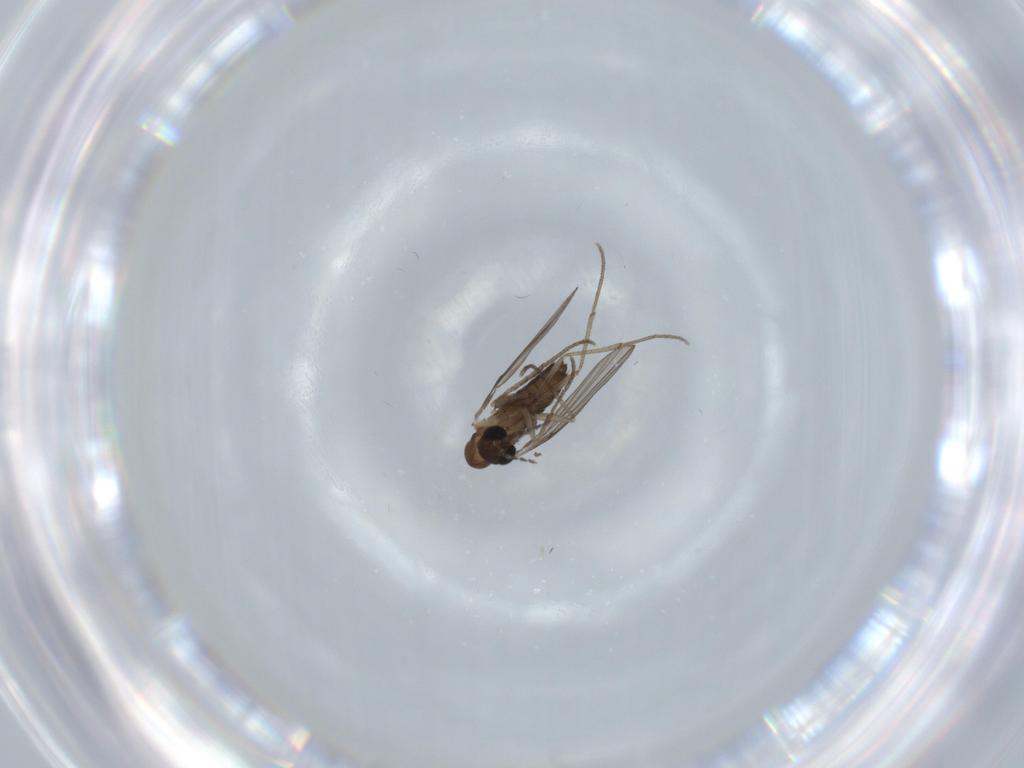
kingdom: Animalia
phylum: Arthropoda
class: Insecta
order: Diptera
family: Psychodidae
